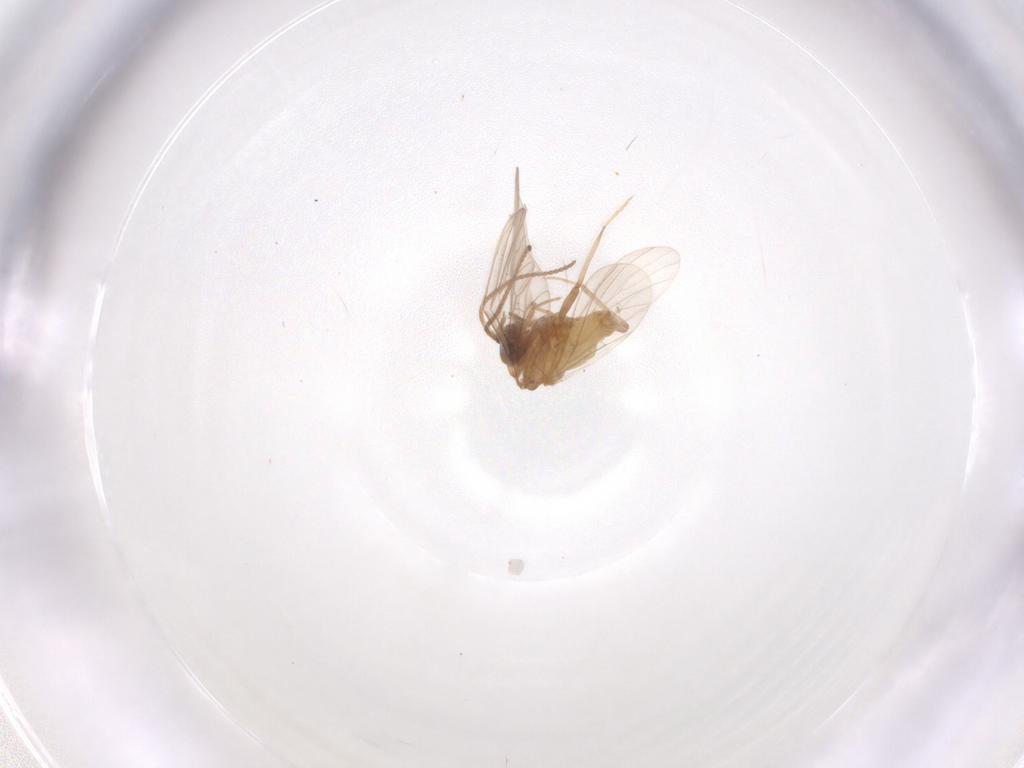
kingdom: Animalia
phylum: Arthropoda
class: Insecta
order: Neuroptera
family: Coniopterygidae
